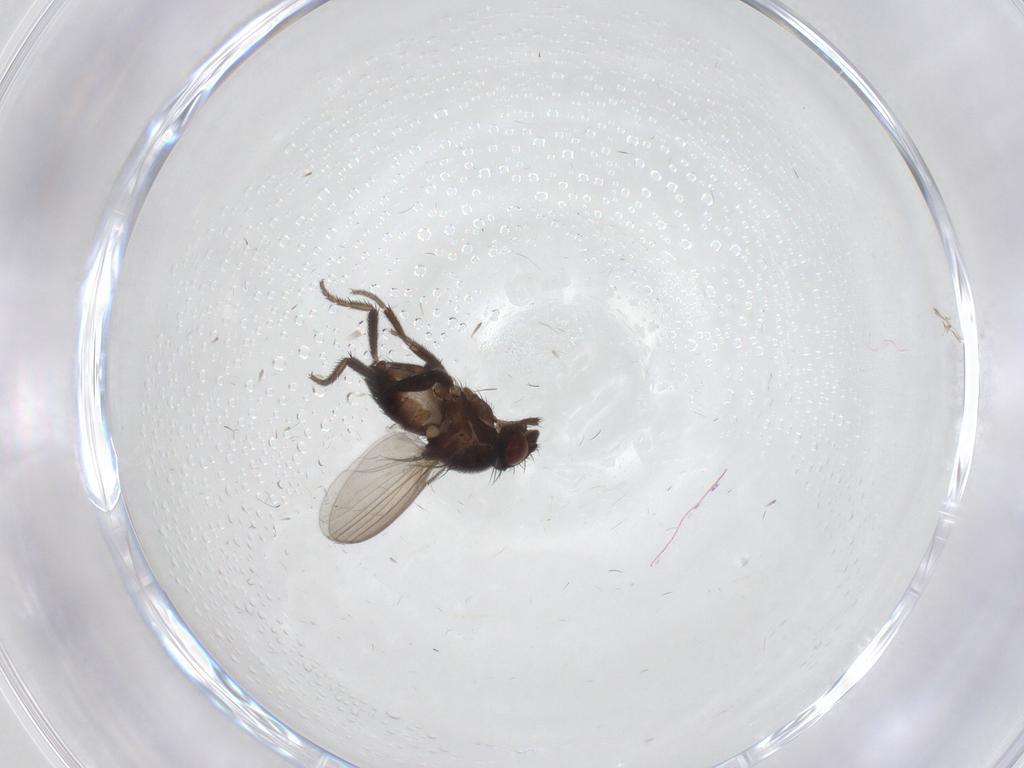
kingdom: Animalia
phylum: Arthropoda
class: Insecta
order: Diptera
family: Milichiidae
